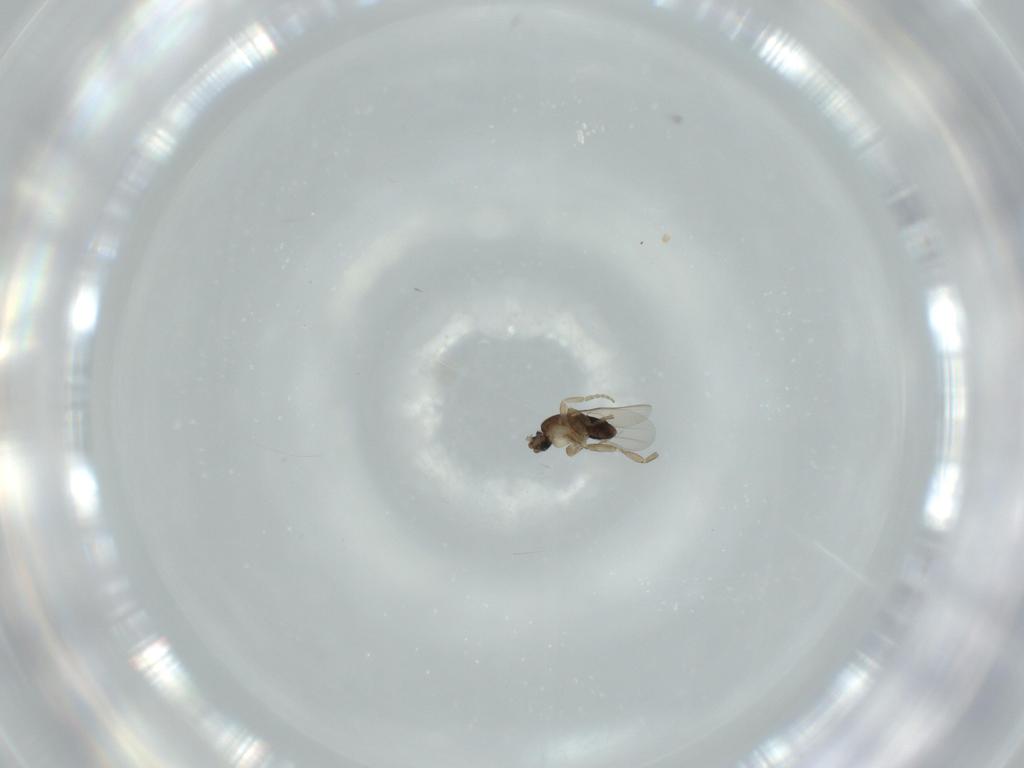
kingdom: Animalia
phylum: Arthropoda
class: Insecta
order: Diptera
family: Phoridae
